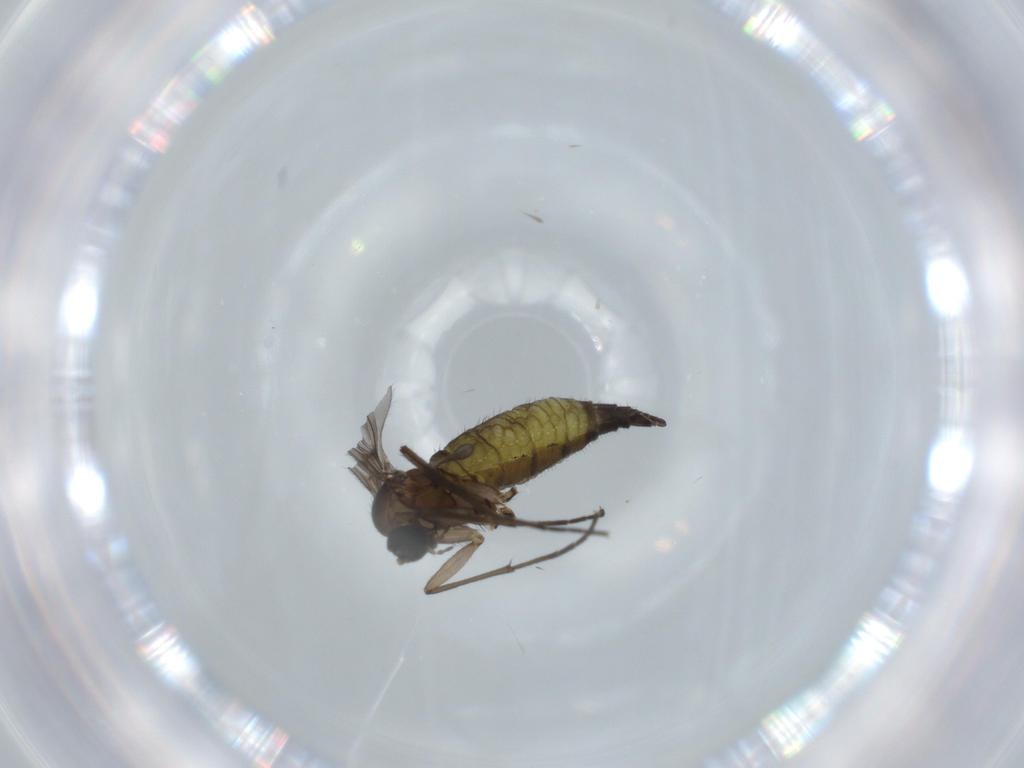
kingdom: Animalia
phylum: Arthropoda
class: Insecta
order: Diptera
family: Sciaridae
